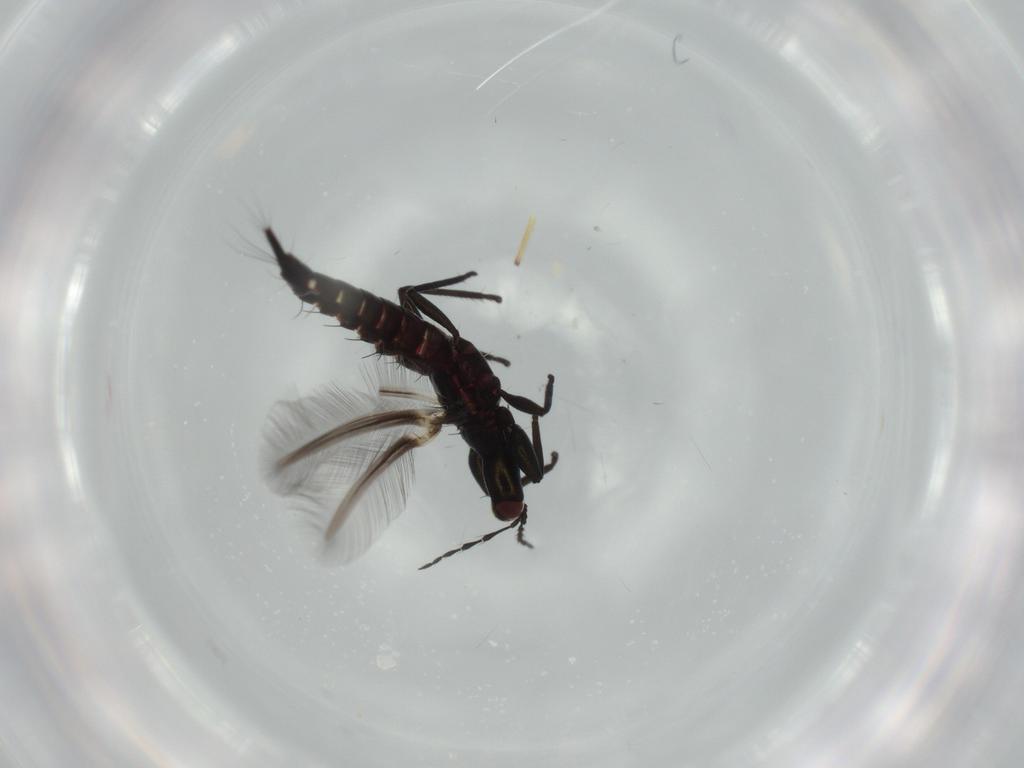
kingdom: Animalia
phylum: Arthropoda
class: Insecta
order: Thysanoptera
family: Phlaeothripidae
